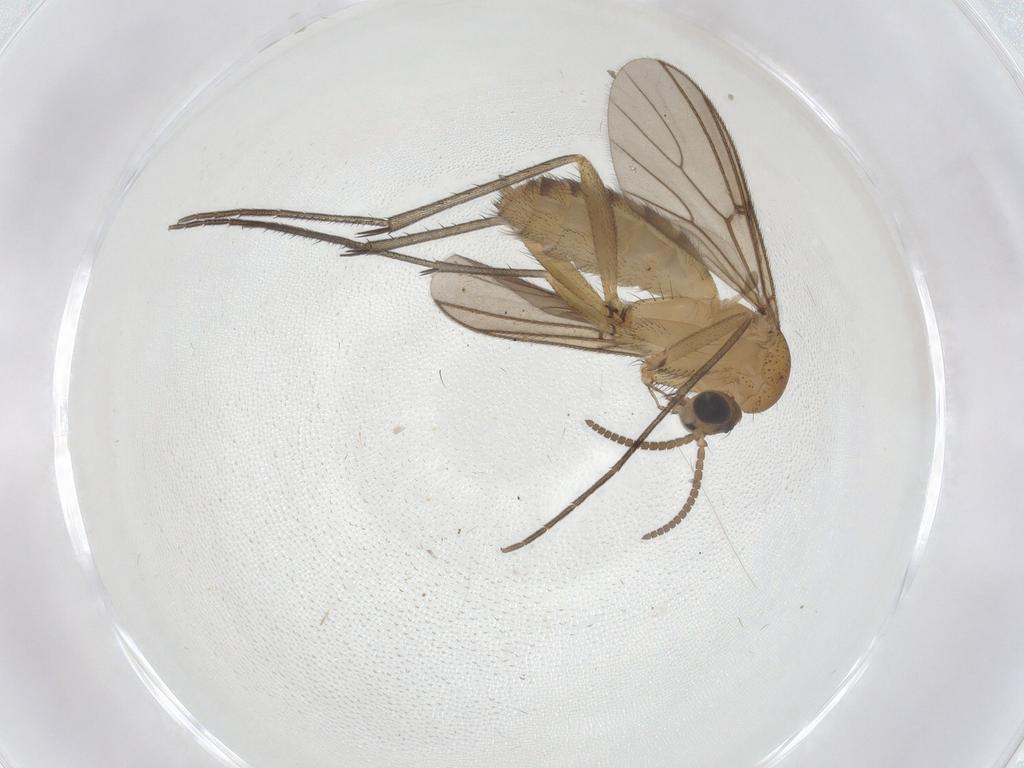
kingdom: Animalia
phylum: Arthropoda
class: Insecta
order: Diptera
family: Mycetophilidae
